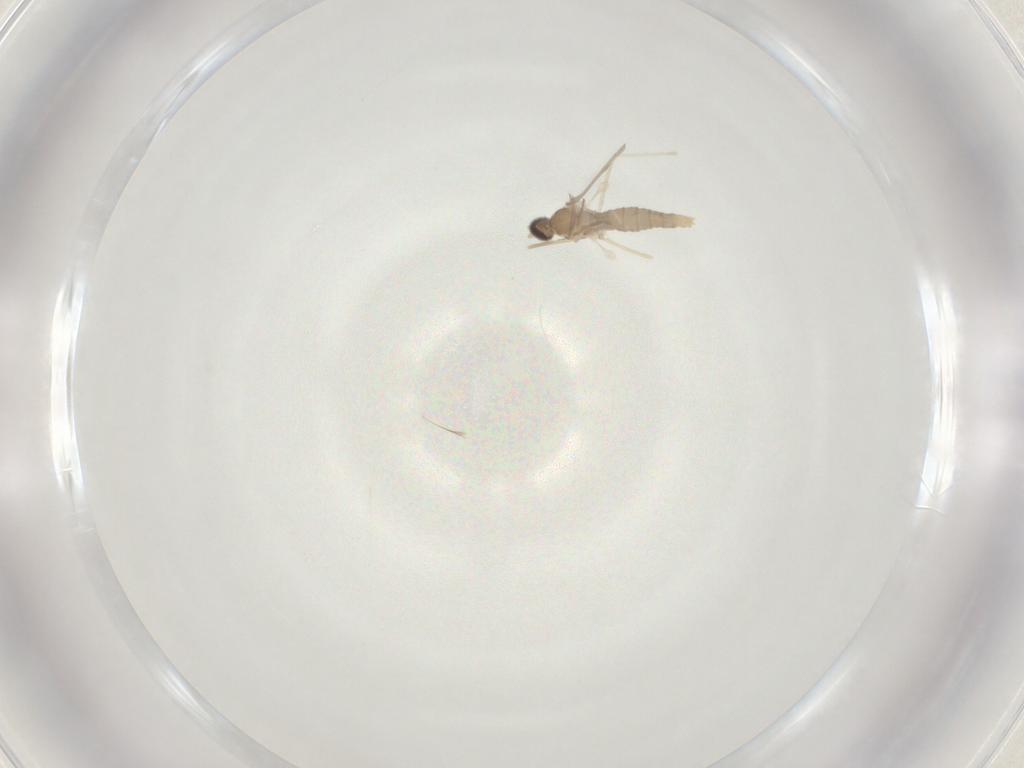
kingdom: Animalia
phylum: Arthropoda
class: Insecta
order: Diptera
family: Cecidomyiidae
